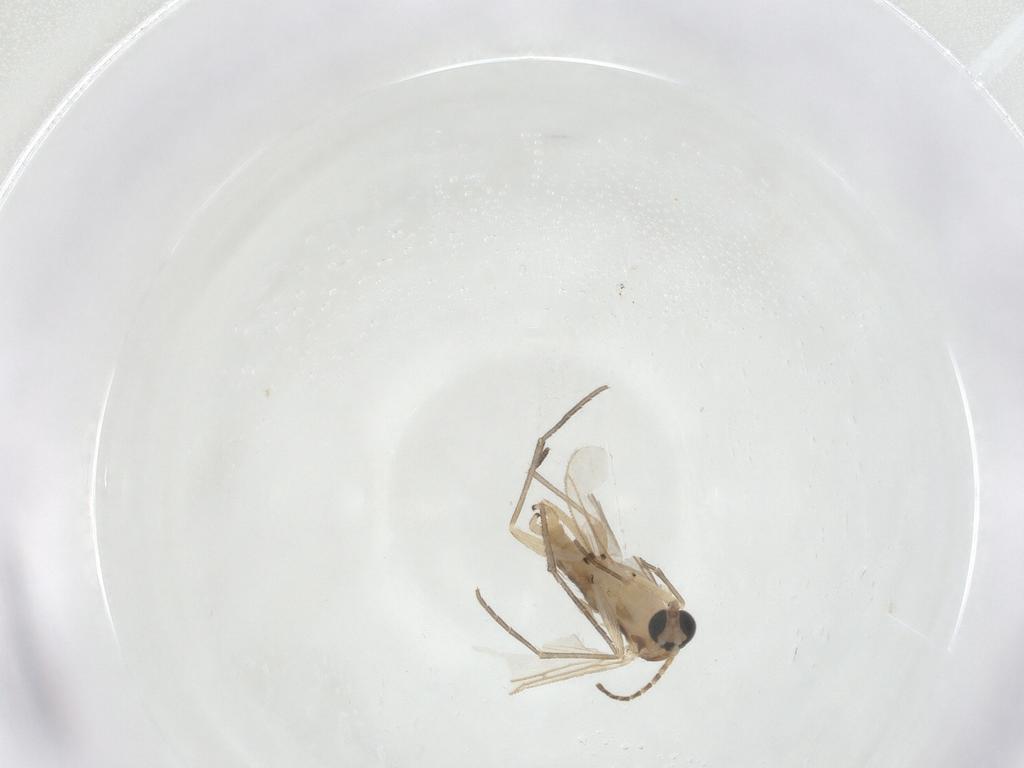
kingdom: Animalia
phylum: Arthropoda
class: Insecta
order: Diptera
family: Sciaridae
